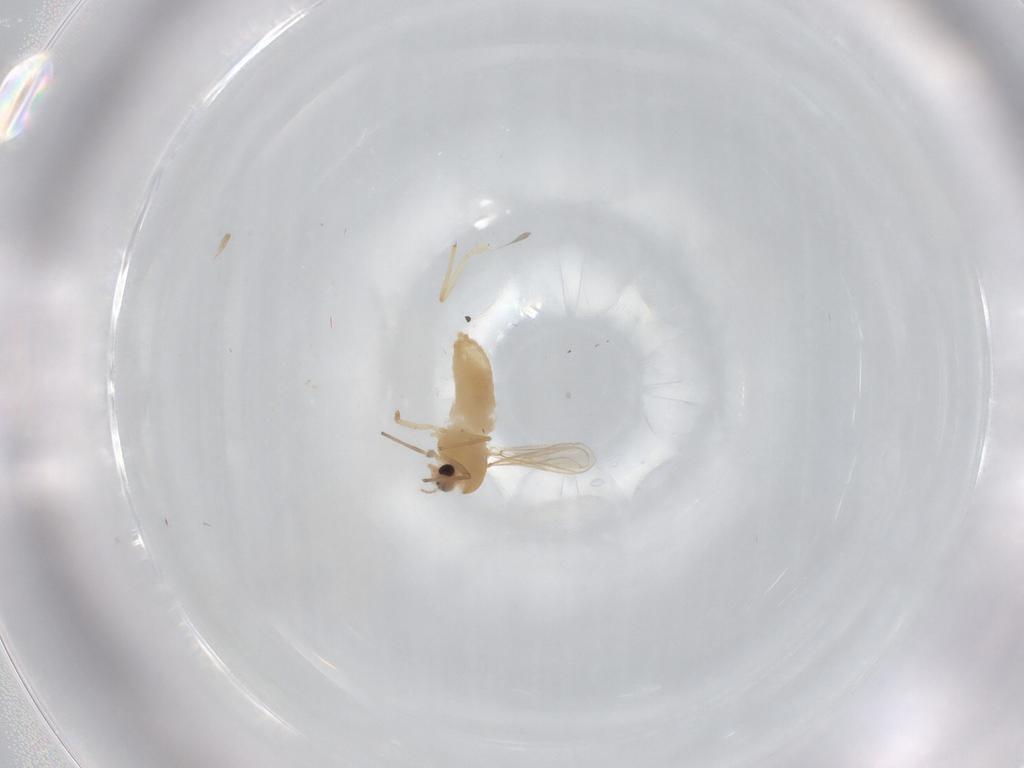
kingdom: Animalia
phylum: Arthropoda
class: Insecta
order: Diptera
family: Chironomidae
